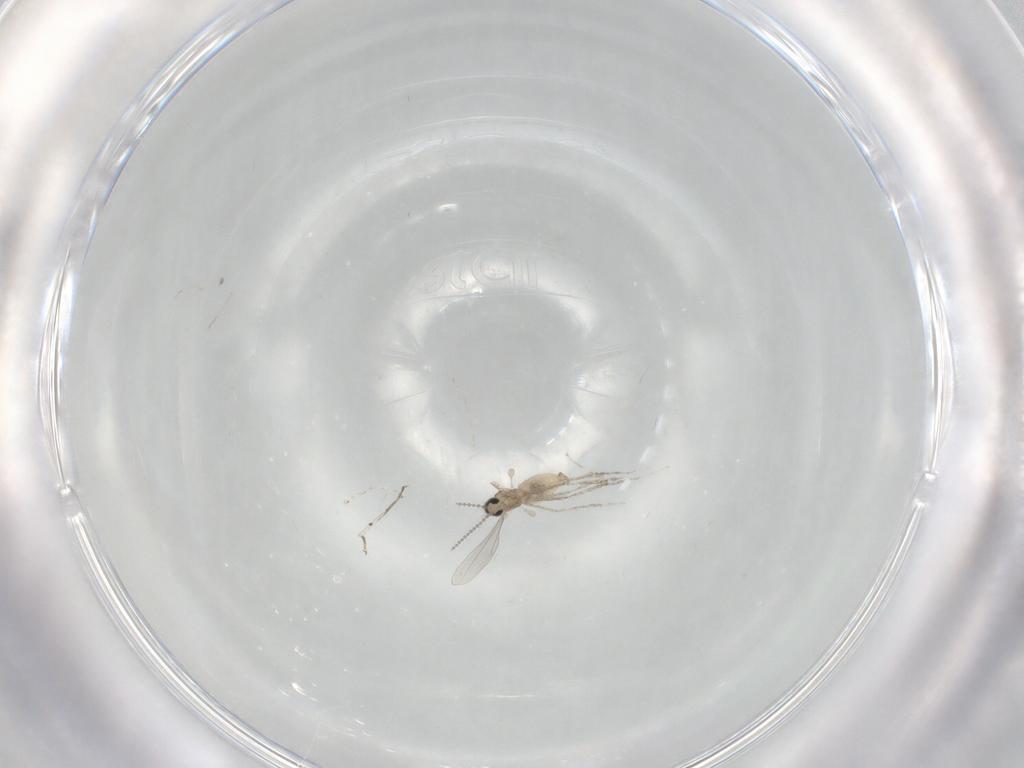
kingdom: Animalia
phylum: Arthropoda
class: Insecta
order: Diptera
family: Cecidomyiidae
